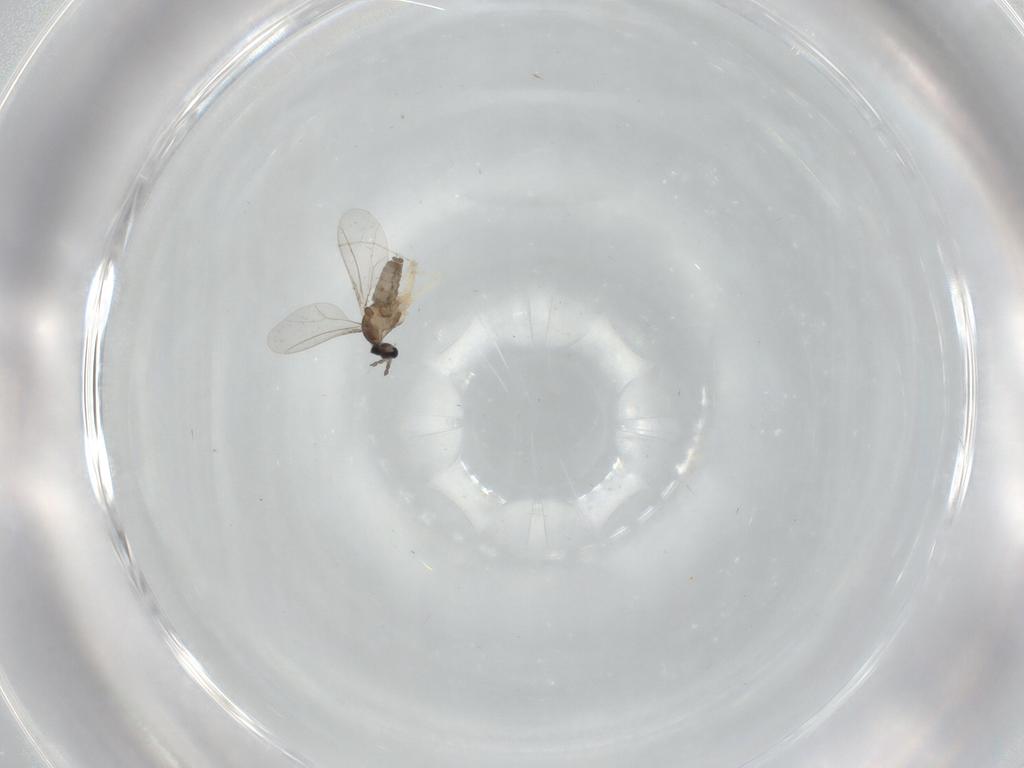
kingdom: Animalia
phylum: Arthropoda
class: Insecta
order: Diptera
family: Cecidomyiidae
